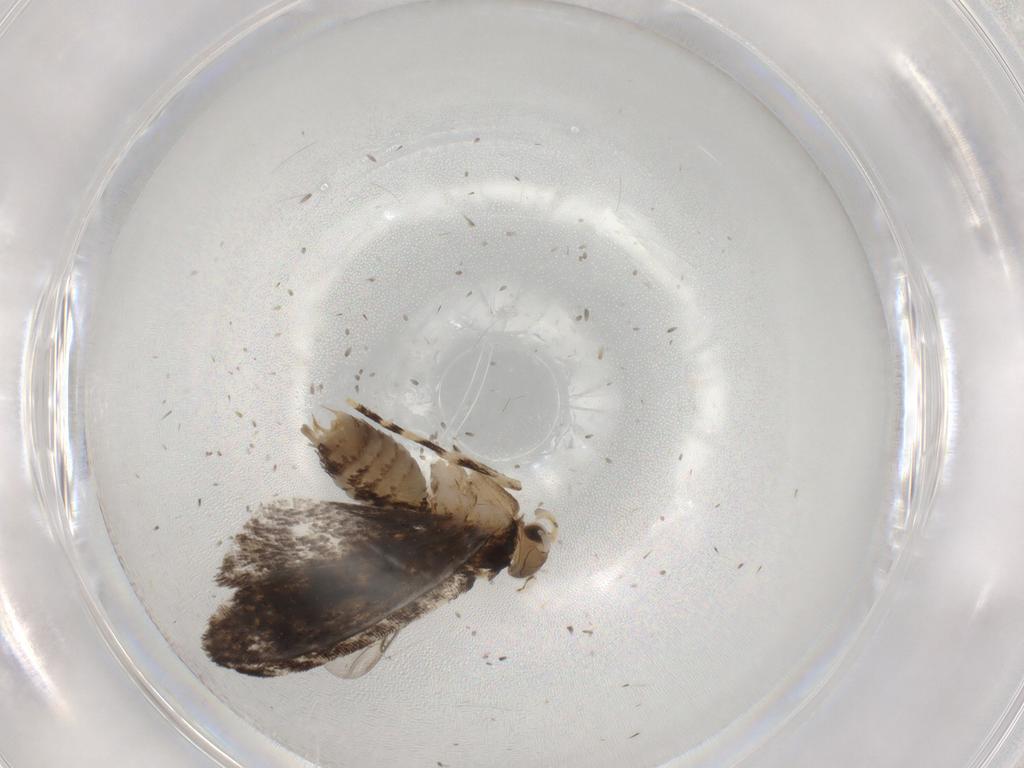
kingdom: Animalia
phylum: Arthropoda
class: Insecta
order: Lepidoptera
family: Dryadaulidae
